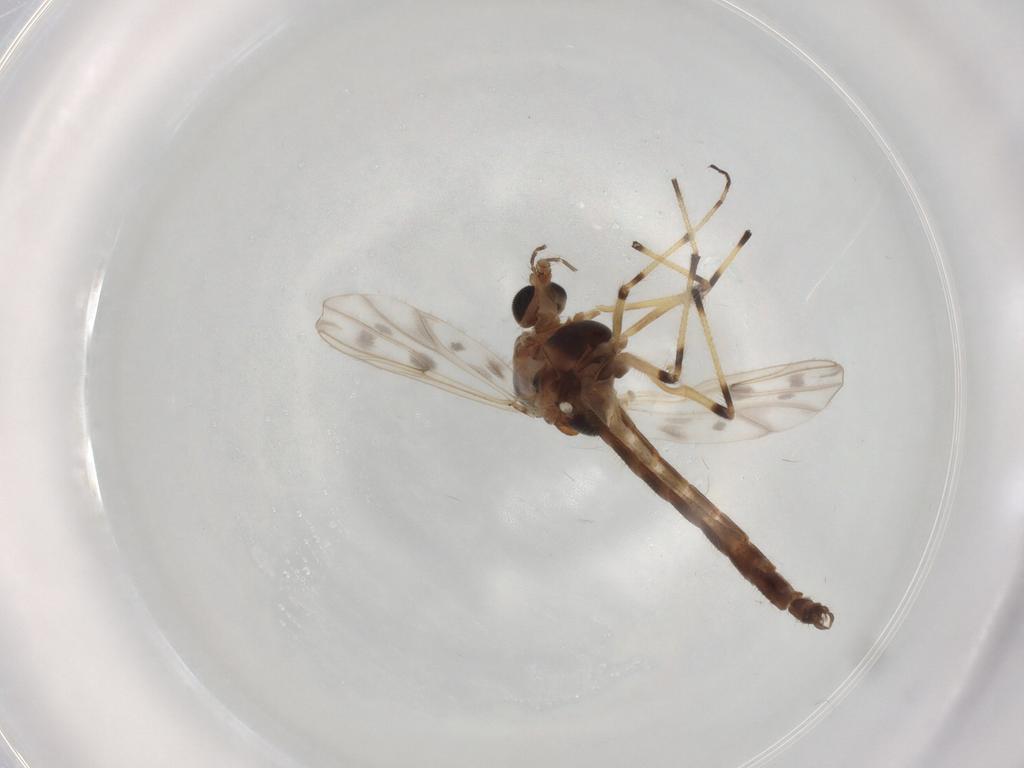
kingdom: Animalia
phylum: Arthropoda
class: Insecta
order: Diptera
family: Chironomidae
